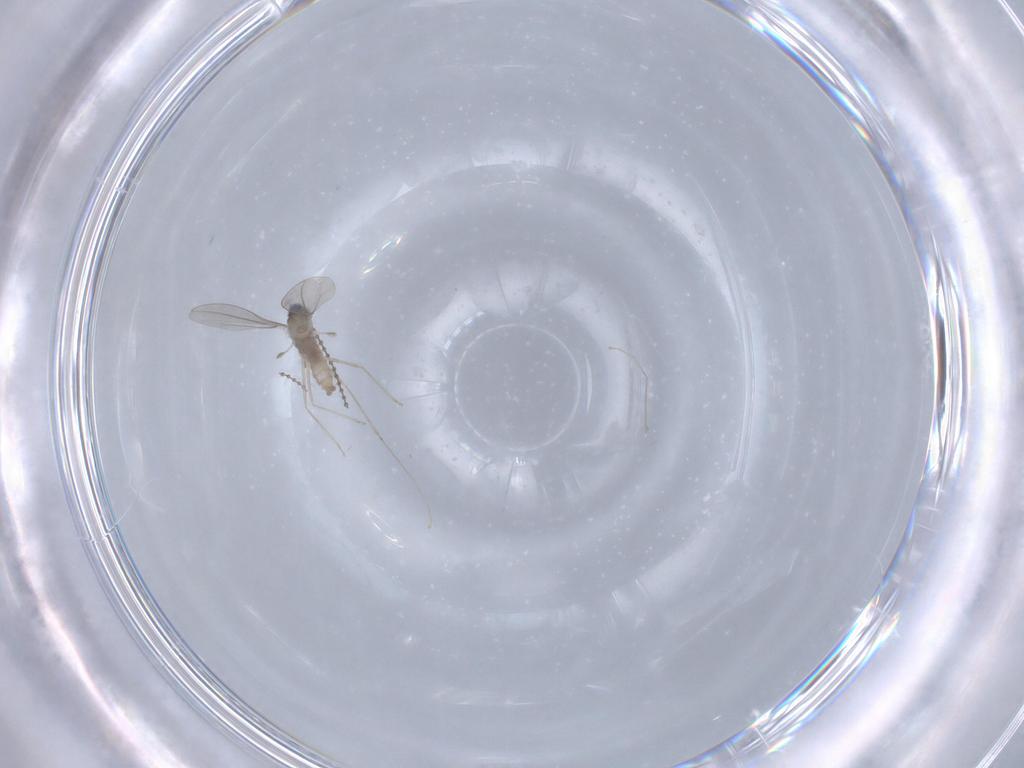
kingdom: Animalia
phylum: Arthropoda
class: Insecta
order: Diptera
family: Cecidomyiidae
